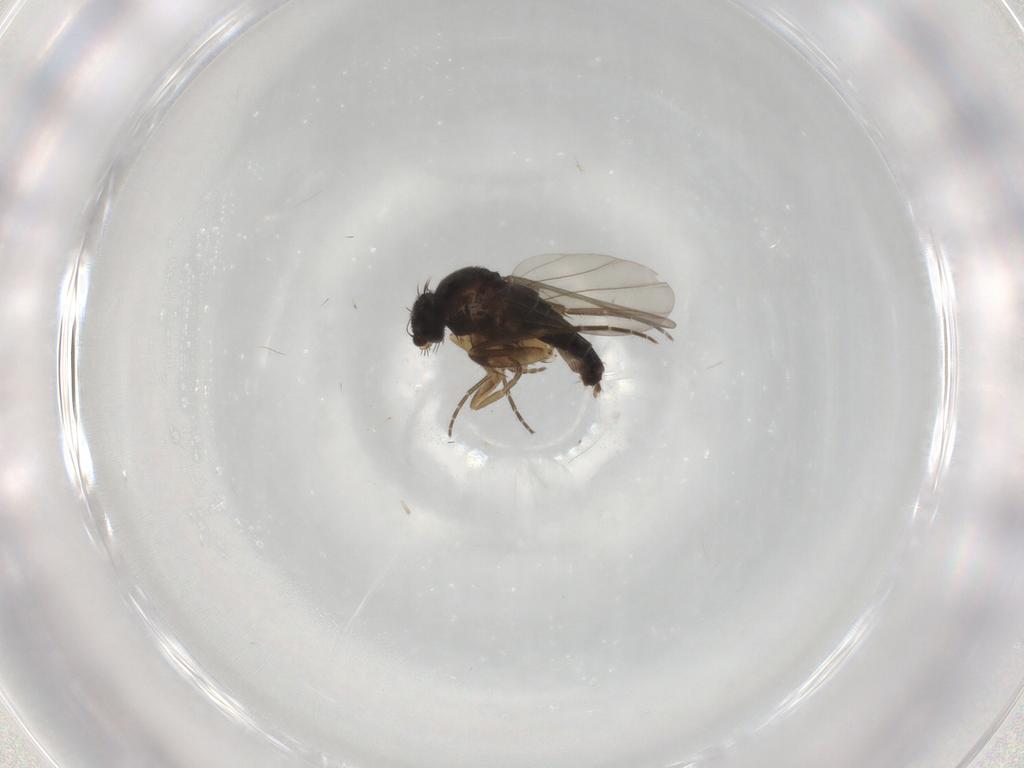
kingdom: Animalia
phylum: Arthropoda
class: Insecta
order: Diptera
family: Phoridae
